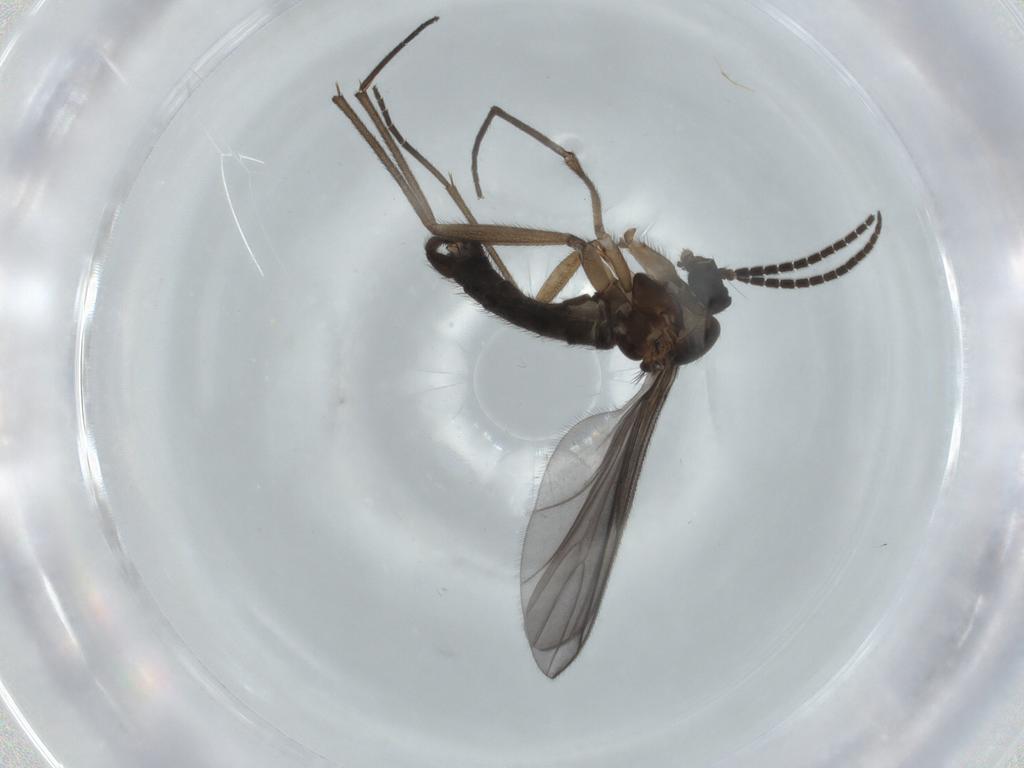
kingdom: Animalia
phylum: Arthropoda
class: Insecta
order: Diptera
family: Sciaridae
